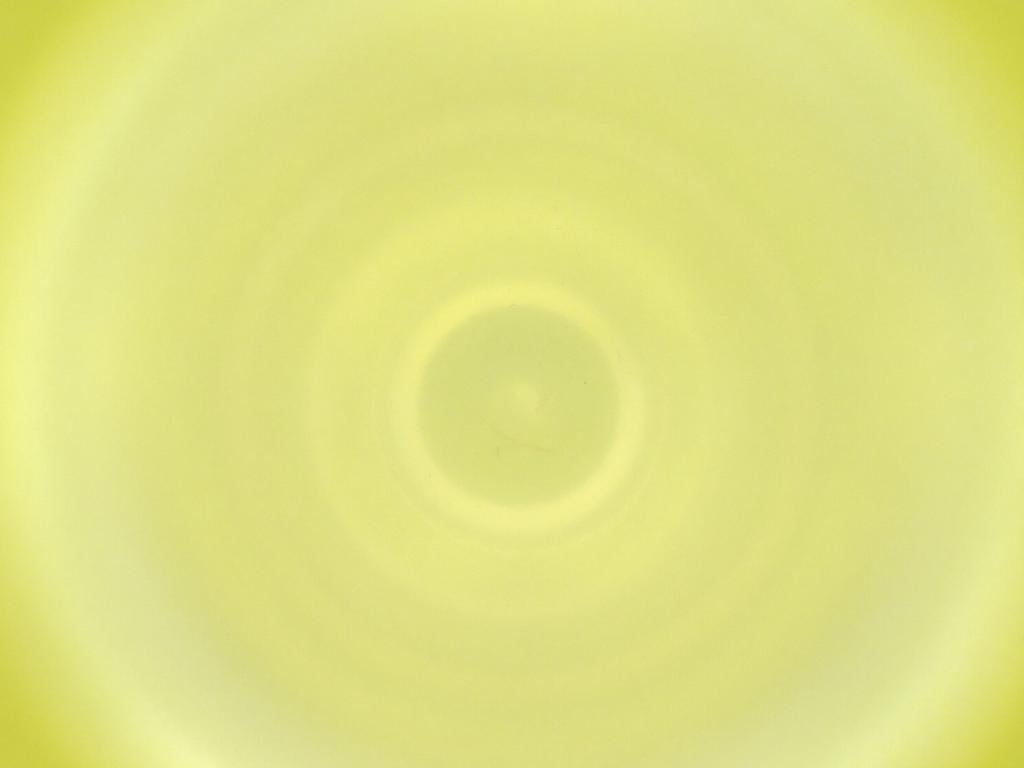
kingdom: Animalia
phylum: Arthropoda
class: Insecta
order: Diptera
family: Cecidomyiidae
